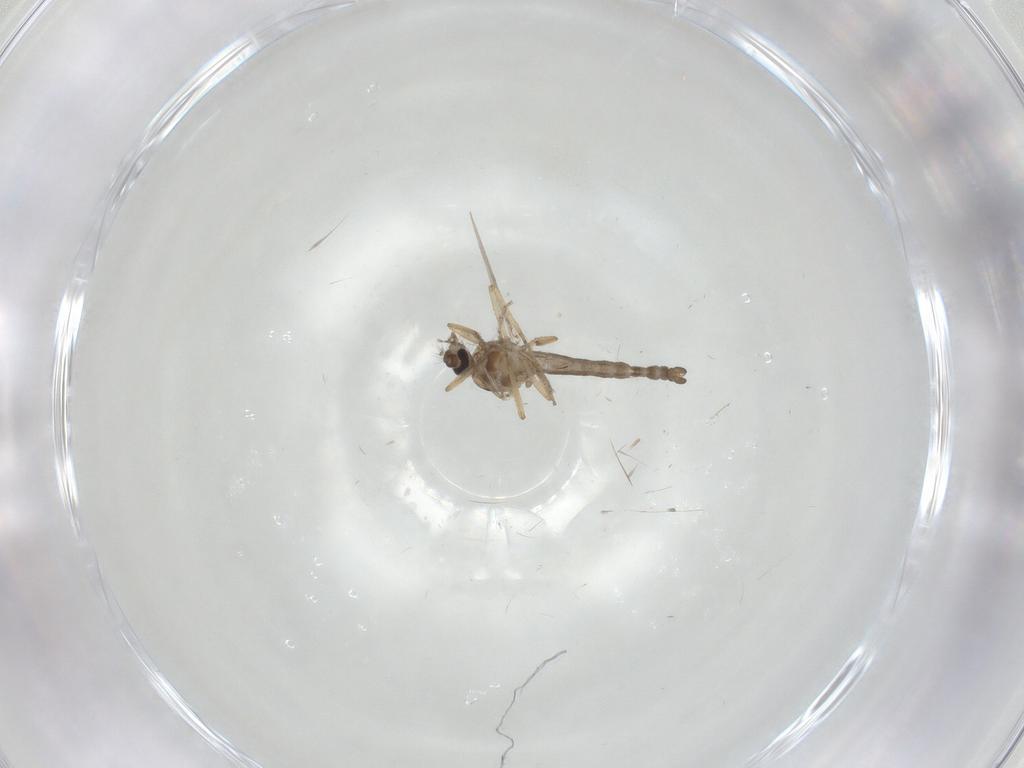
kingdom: Animalia
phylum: Arthropoda
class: Insecta
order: Diptera
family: Ceratopogonidae
